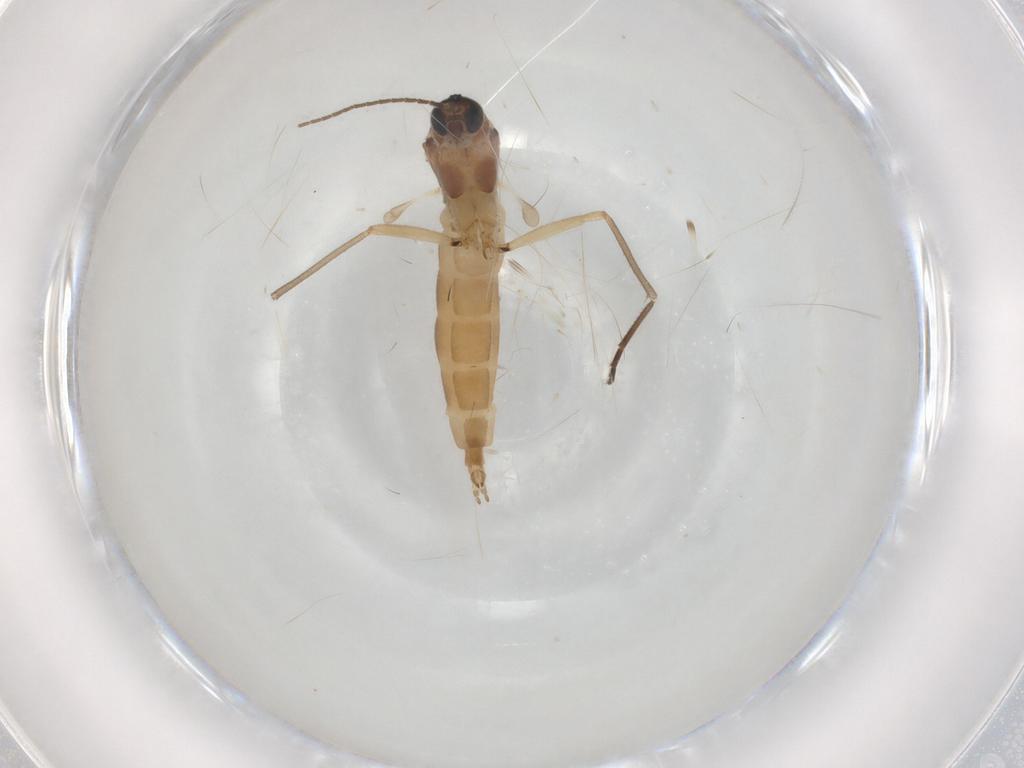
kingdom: Animalia
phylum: Arthropoda
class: Insecta
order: Diptera
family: Sciaridae
